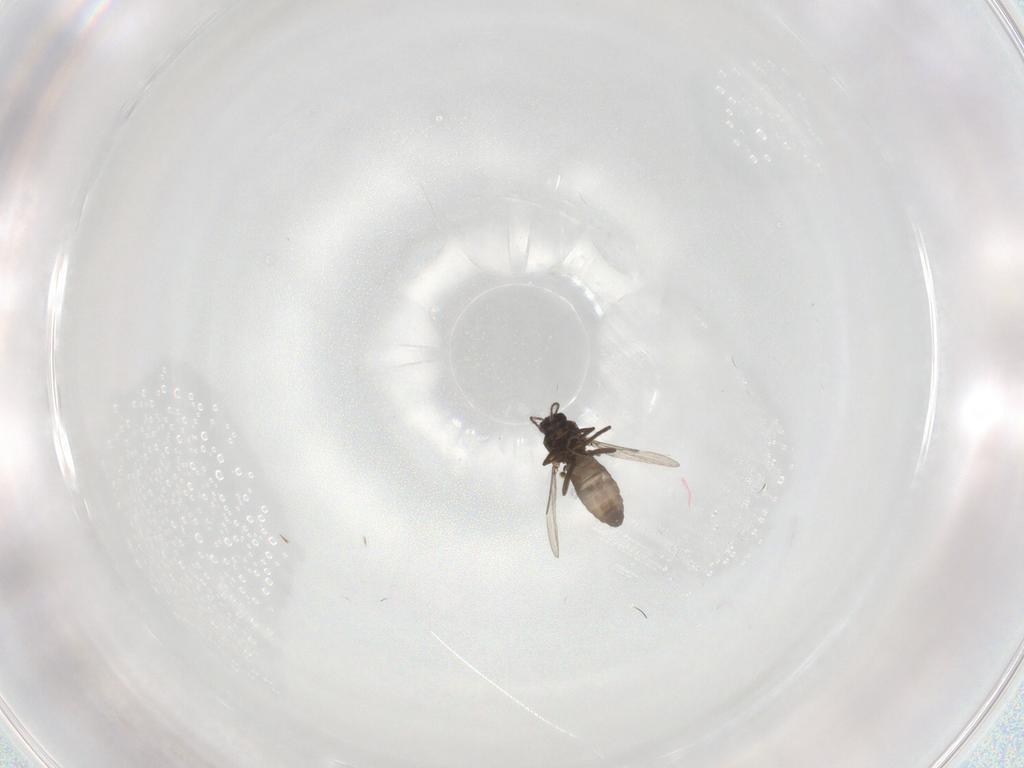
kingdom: Animalia
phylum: Arthropoda
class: Insecta
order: Diptera
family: Ceratopogonidae
